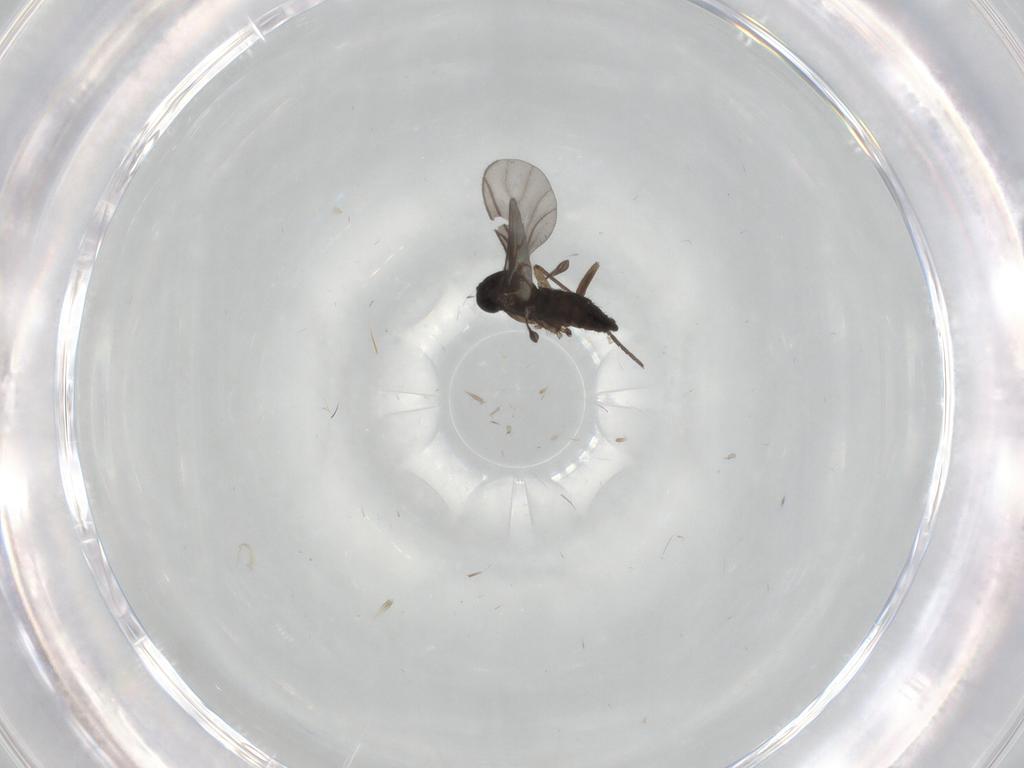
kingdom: Animalia
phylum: Arthropoda
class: Insecta
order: Diptera
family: Sciaridae
